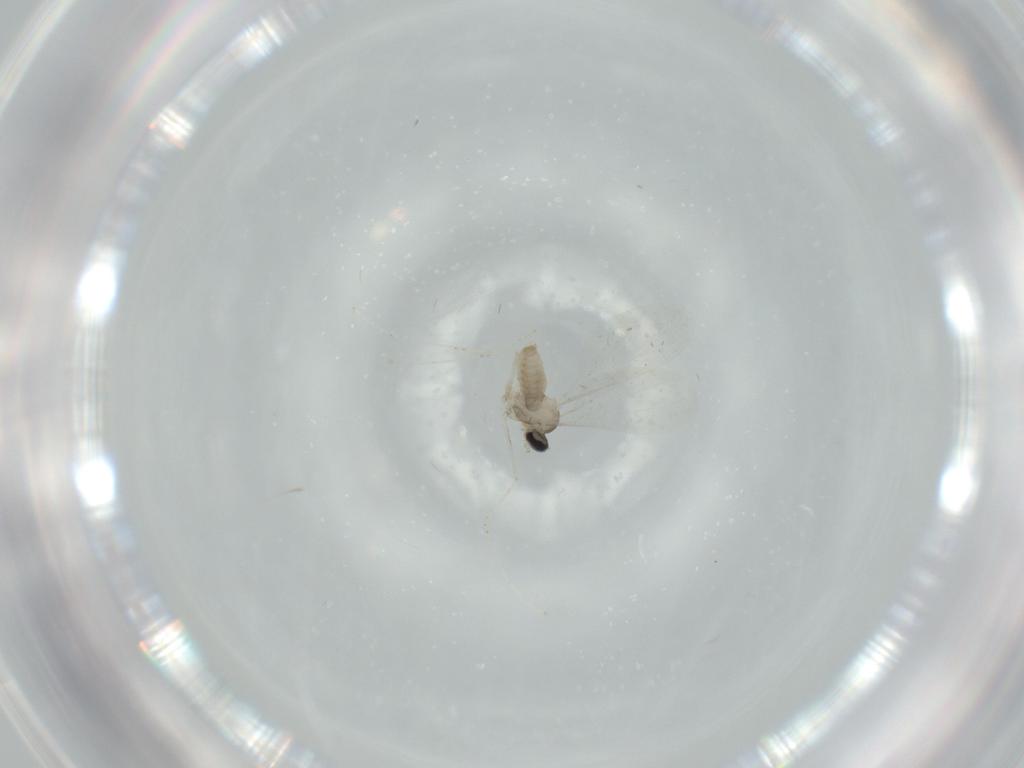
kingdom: Animalia
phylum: Arthropoda
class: Insecta
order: Diptera
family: Cecidomyiidae
